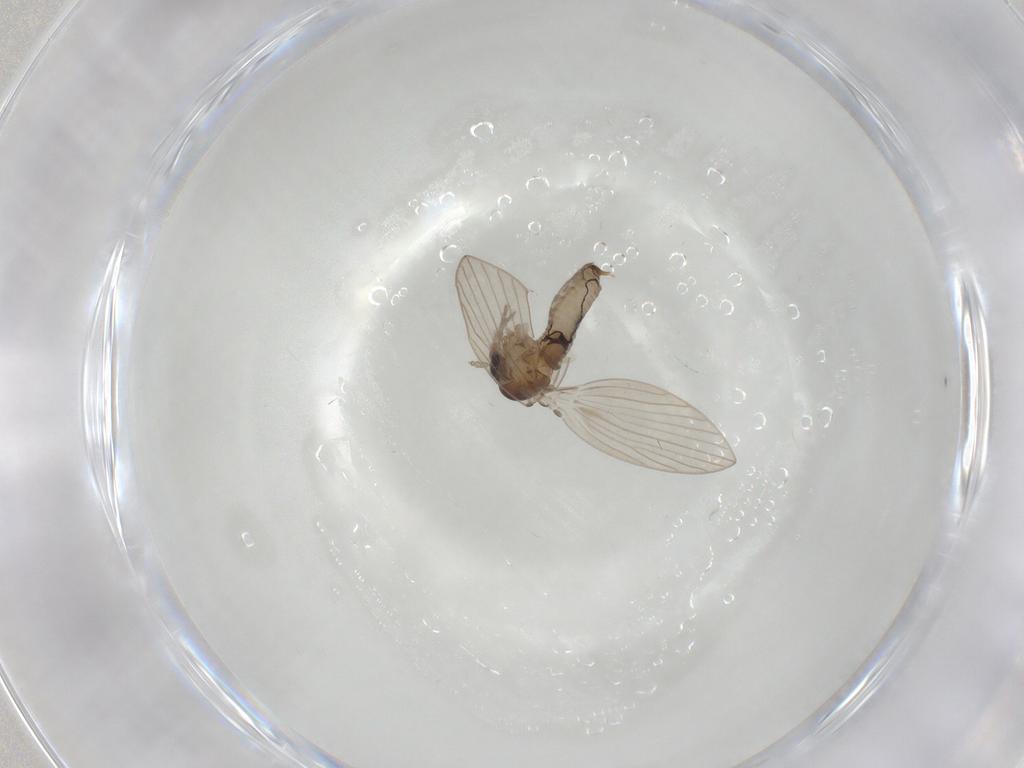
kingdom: Animalia
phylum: Arthropoda
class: Insecta
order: Diptera
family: Psychodidae
